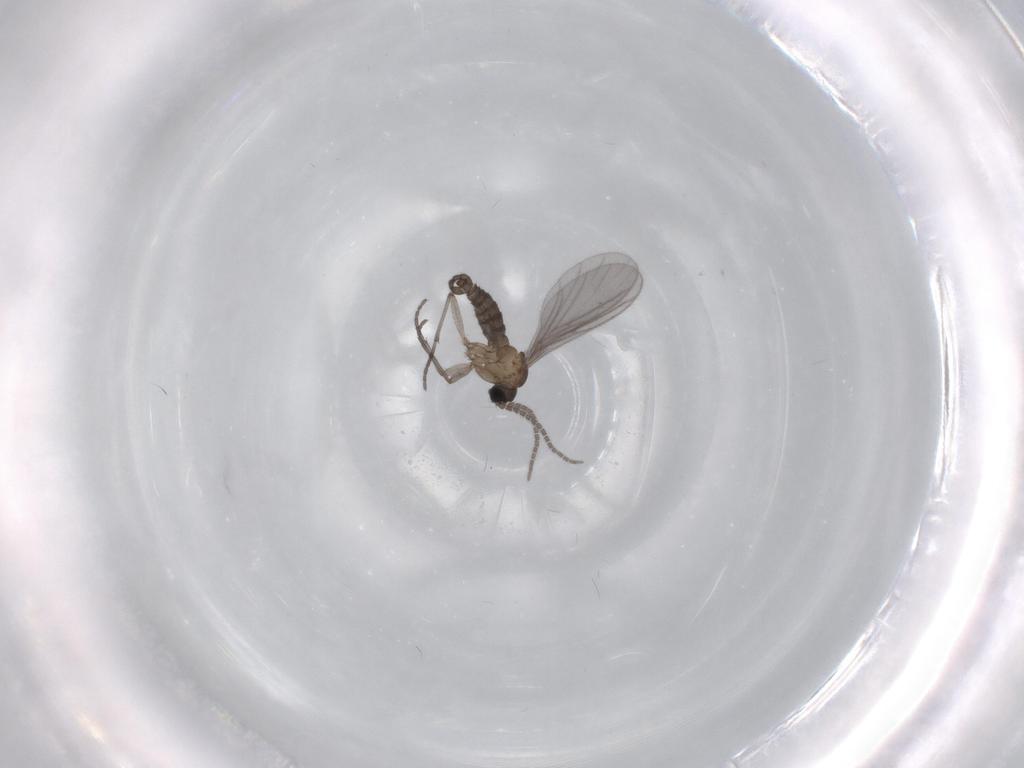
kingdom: Animalia
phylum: Arthropoda
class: Insecta
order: Diptera
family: Sciaridae
